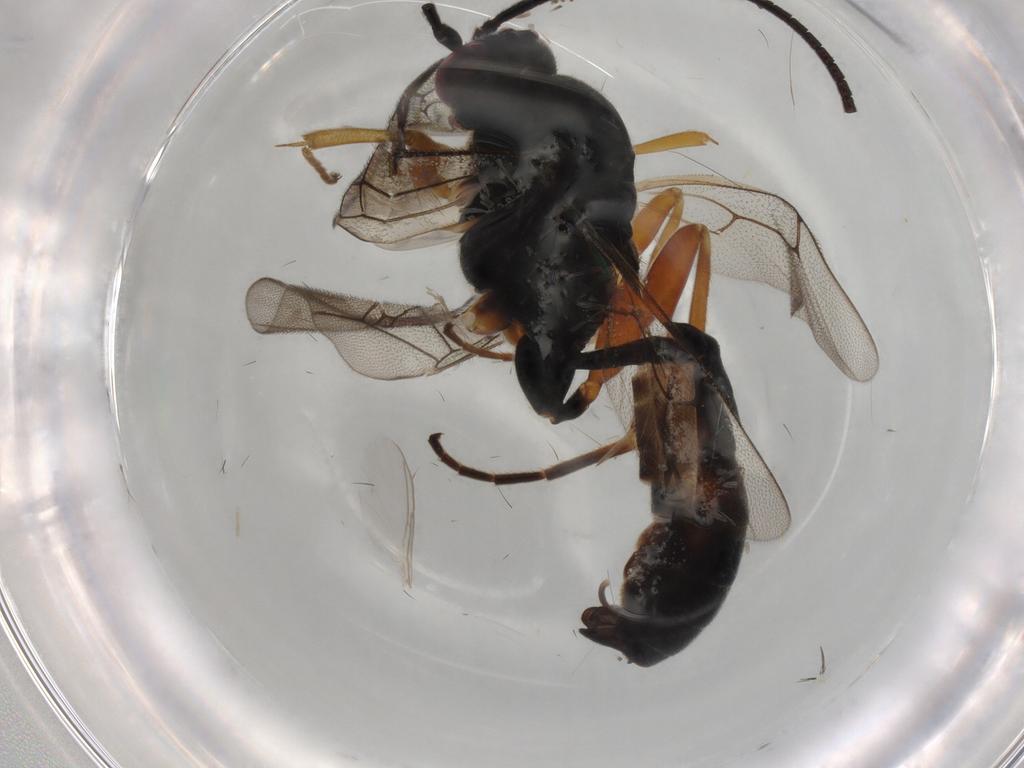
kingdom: Animalia
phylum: Arthropoda
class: Insecta
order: Hymenoptera
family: Ichneumonidae
